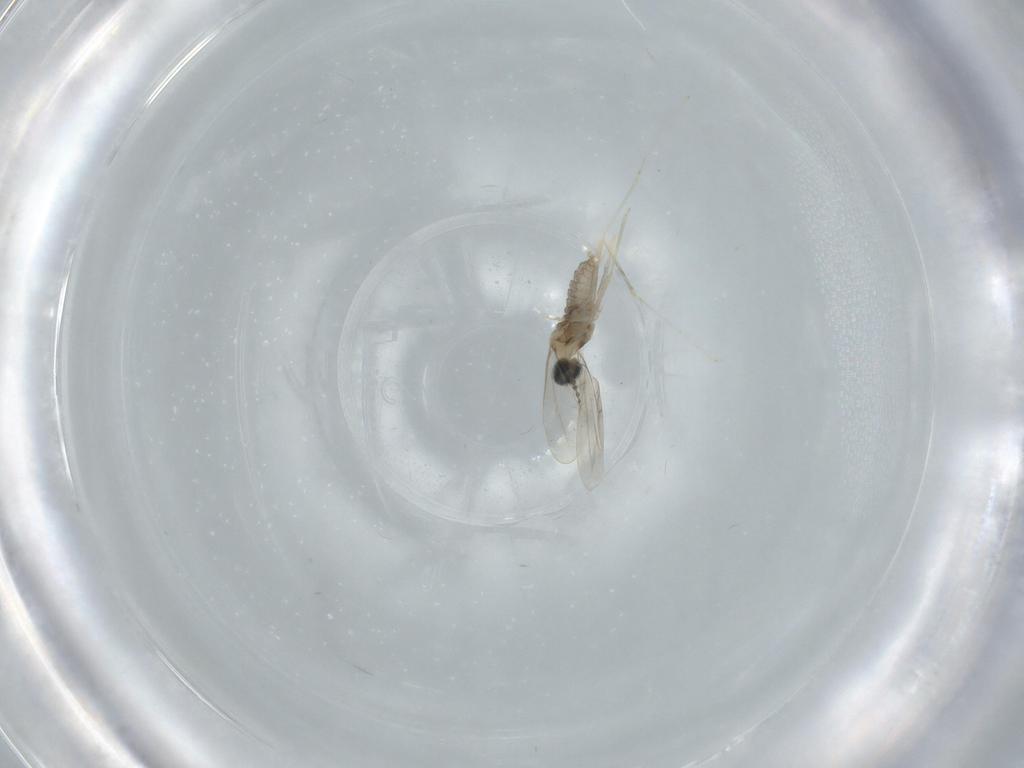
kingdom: Animalia
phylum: Arthropoda
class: Insecta
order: Diptera
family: Cecidomyiidae
